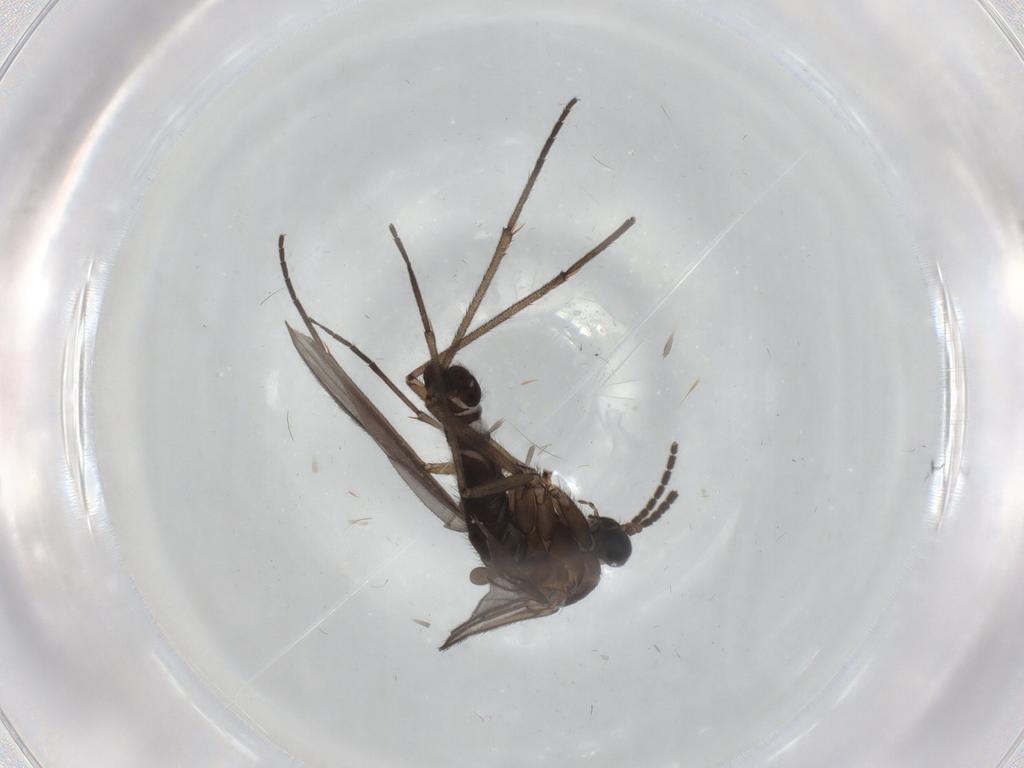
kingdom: Animalia
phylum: Arthropoda
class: Insecta
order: Diptera
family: Sciaridae
